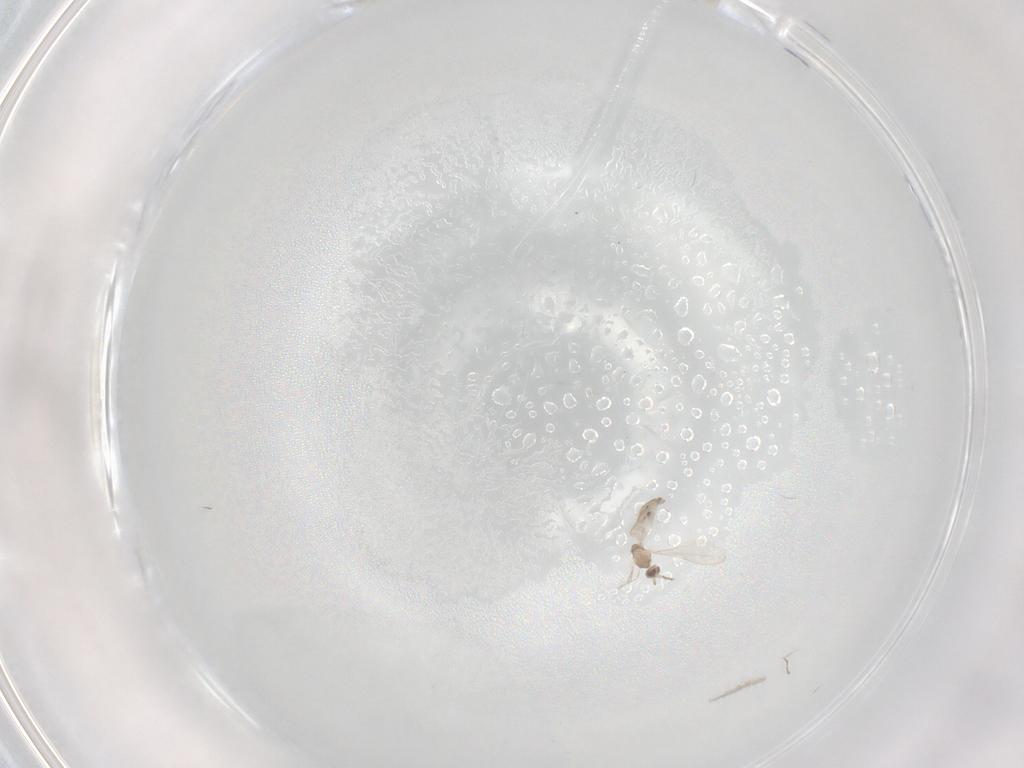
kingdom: Animalia
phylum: Arthropoda
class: Insecta
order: Diptera
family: Cecidomyiidae
